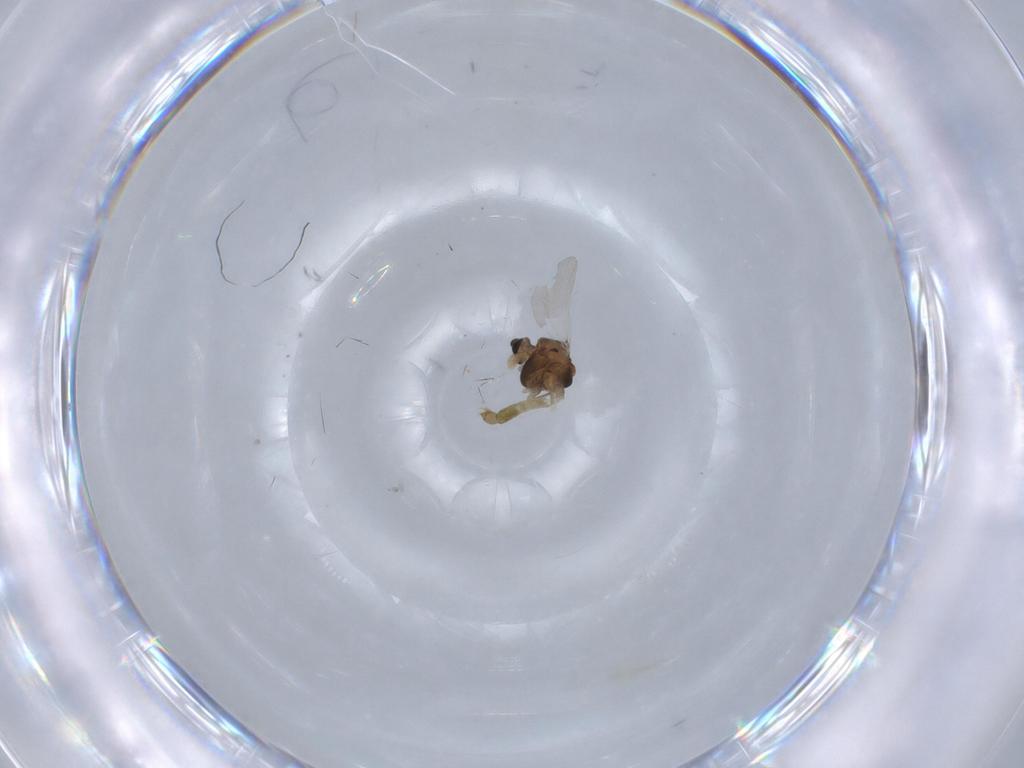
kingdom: Animalia
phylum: Arthropoda
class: Insecta
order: Diptera
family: Chironomidae
